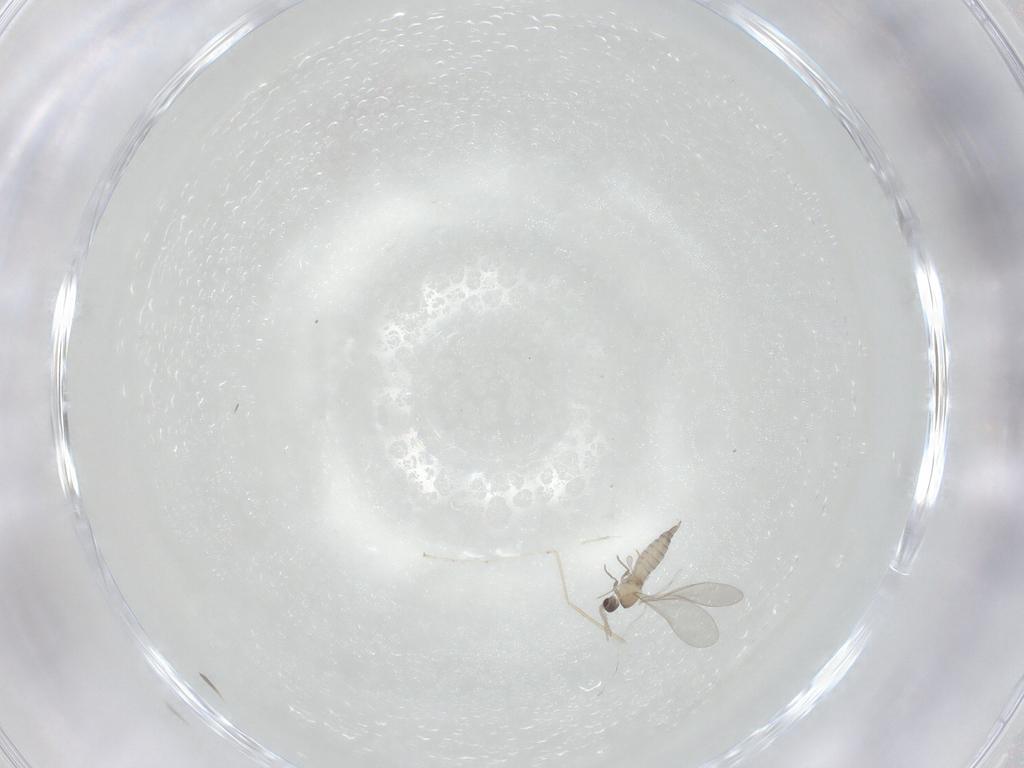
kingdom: Animalia
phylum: Arthropoda
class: Insecta
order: Diptera
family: Cecidomyiidae
